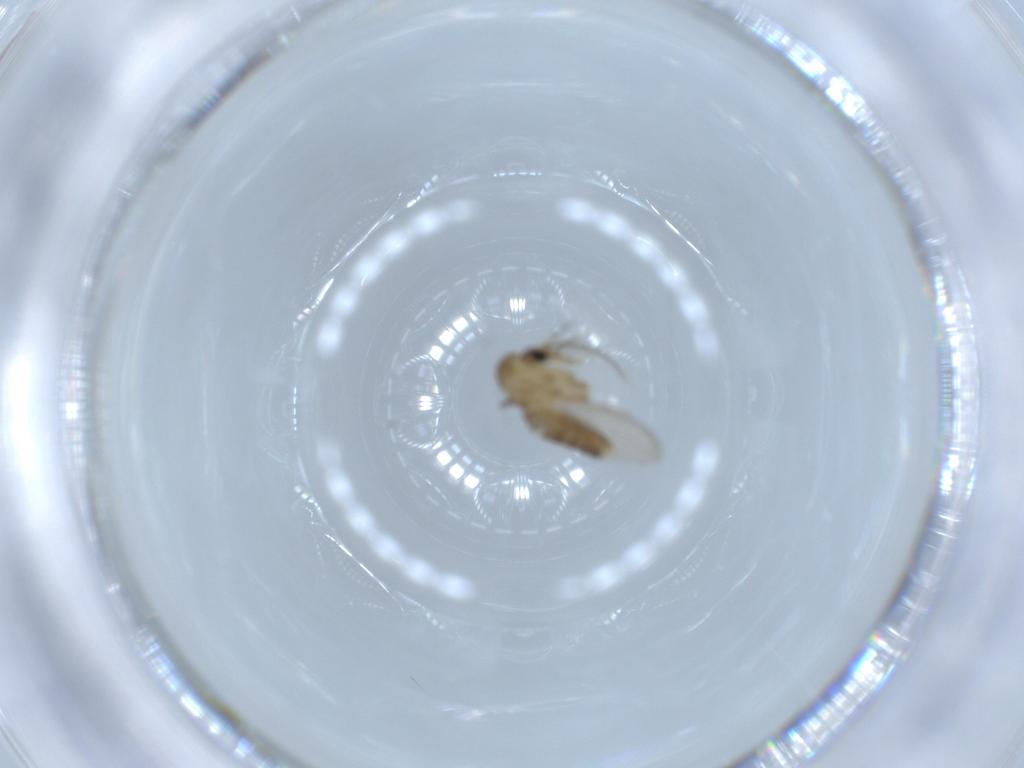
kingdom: Animalia
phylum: Arthropoda
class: Insecta
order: Diptera
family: Psychodidae
